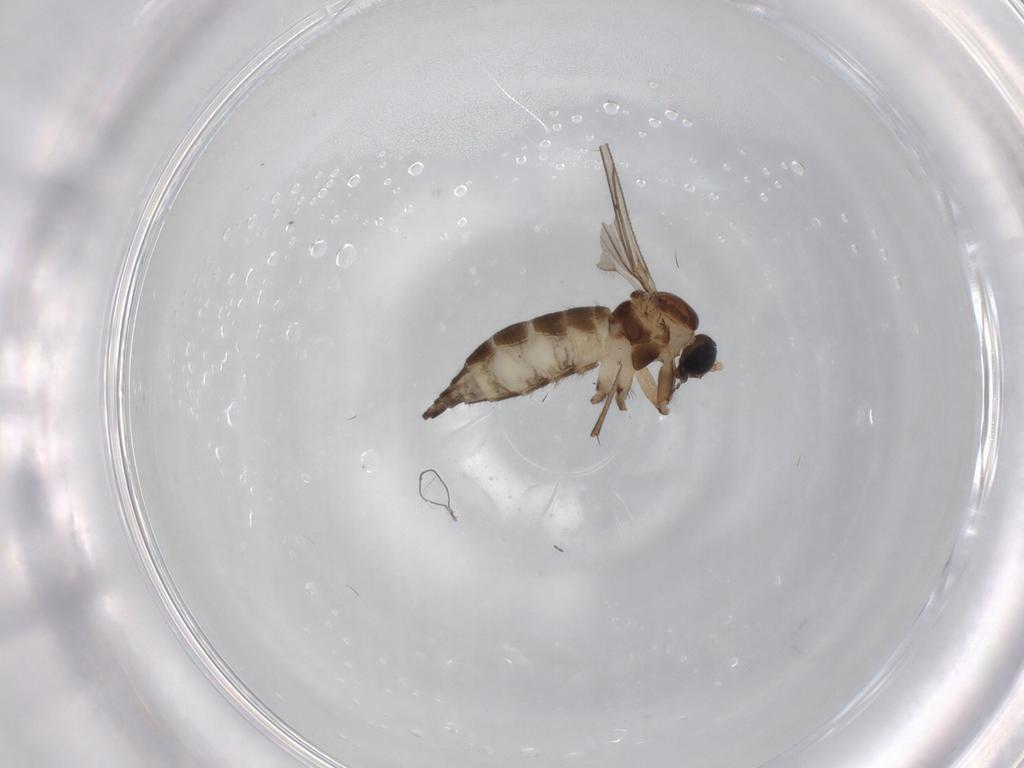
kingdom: Animalia
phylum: Arthropoda
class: Insecta
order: Diptera
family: Sciaridae
